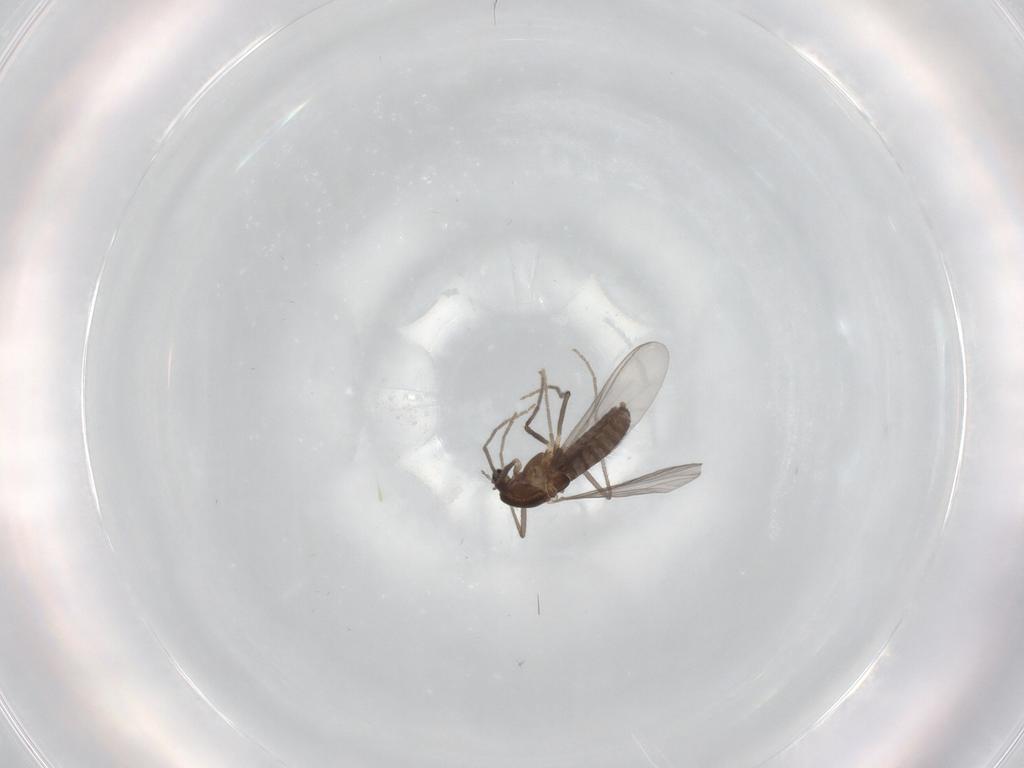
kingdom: Animalia
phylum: Arthropoda
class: Insecta
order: Diptera
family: Chironomidae
